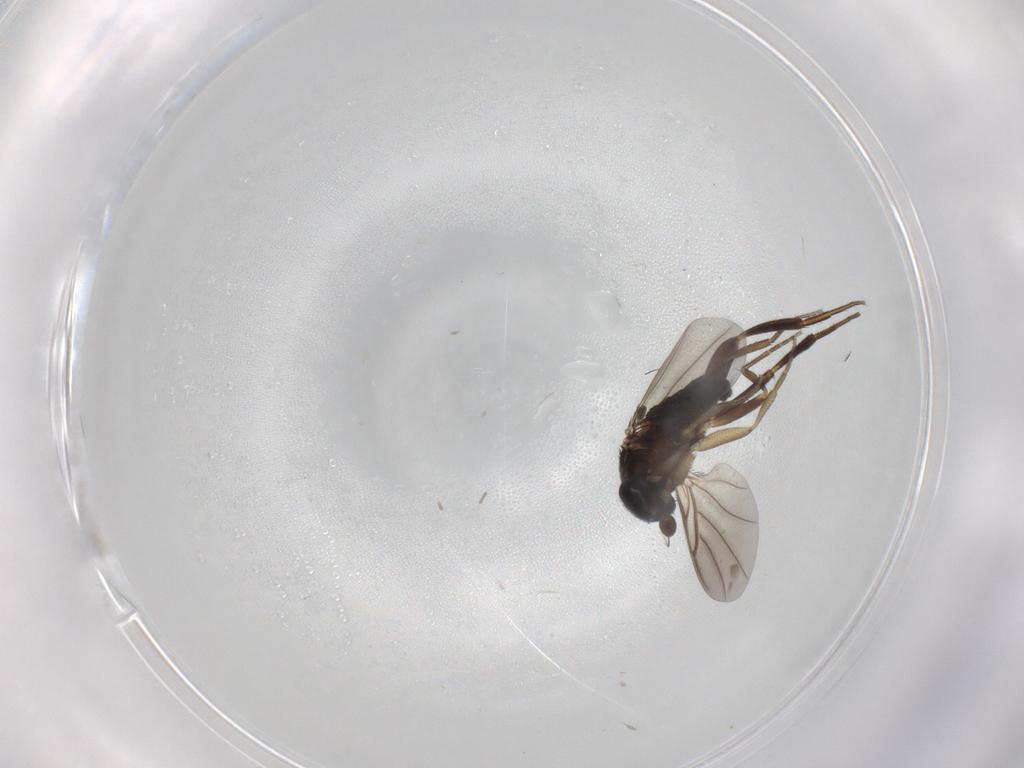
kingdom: Animalia
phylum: Arthropoda
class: Insecta
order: Diptera
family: Phoridae
